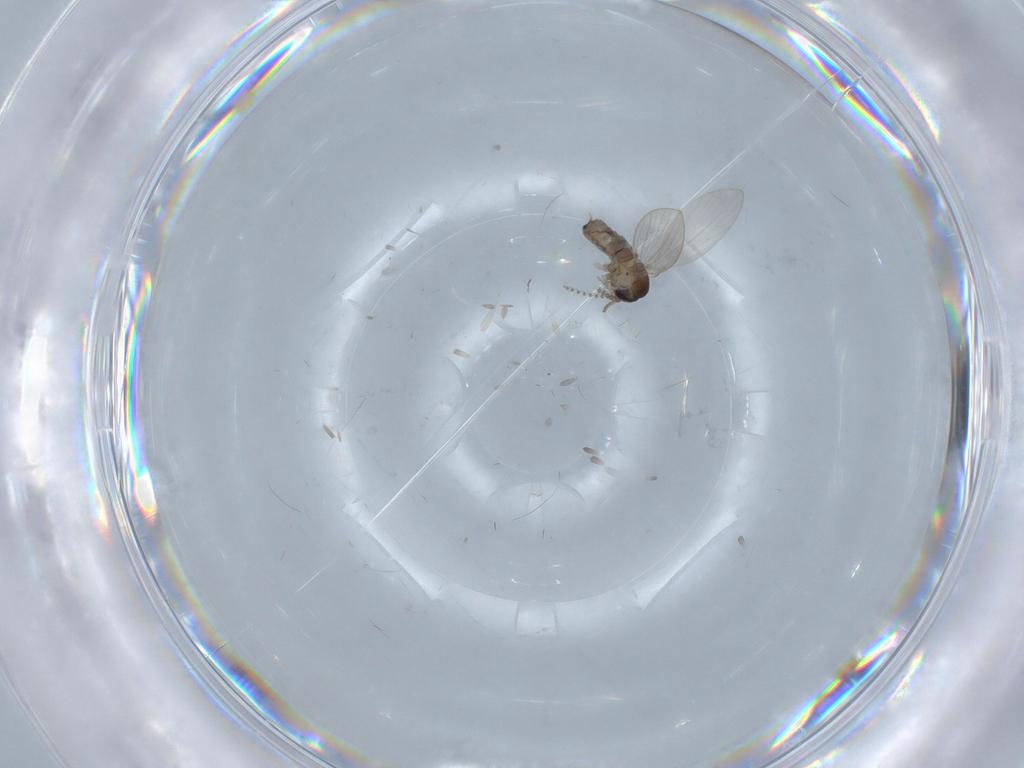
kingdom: Animalia
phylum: Arthropoda
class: Insecta
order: Diptera
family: Psychodidae
